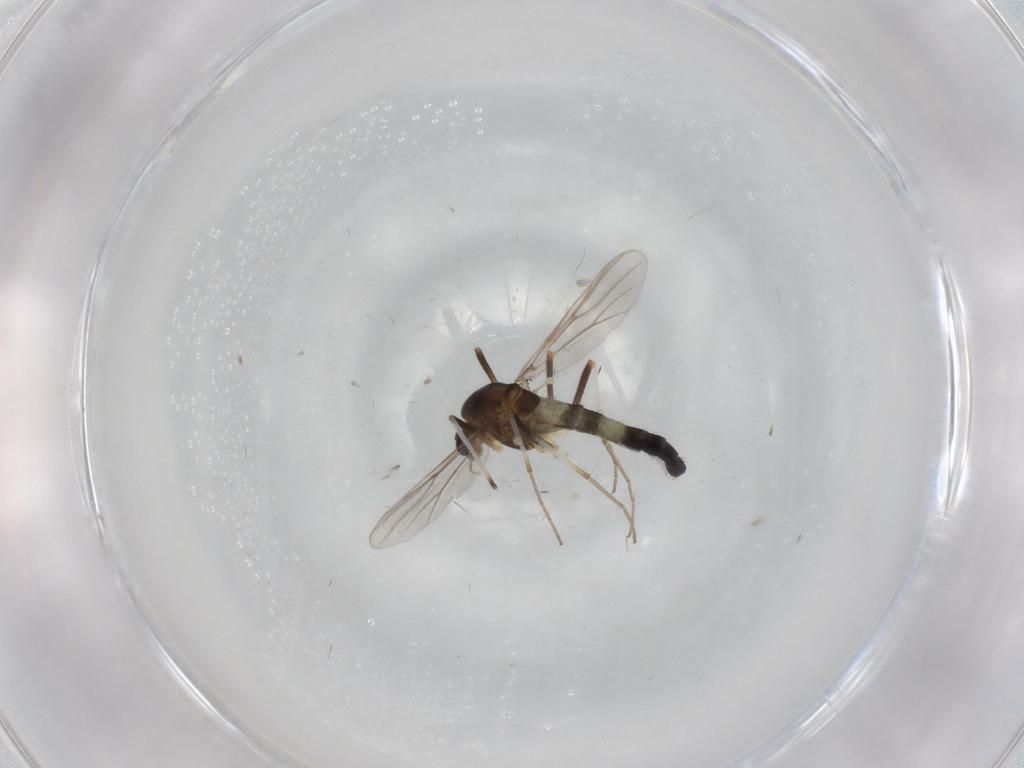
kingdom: Animalia
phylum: Arthropoda
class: Insecta
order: Diptera
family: Chironomidae
